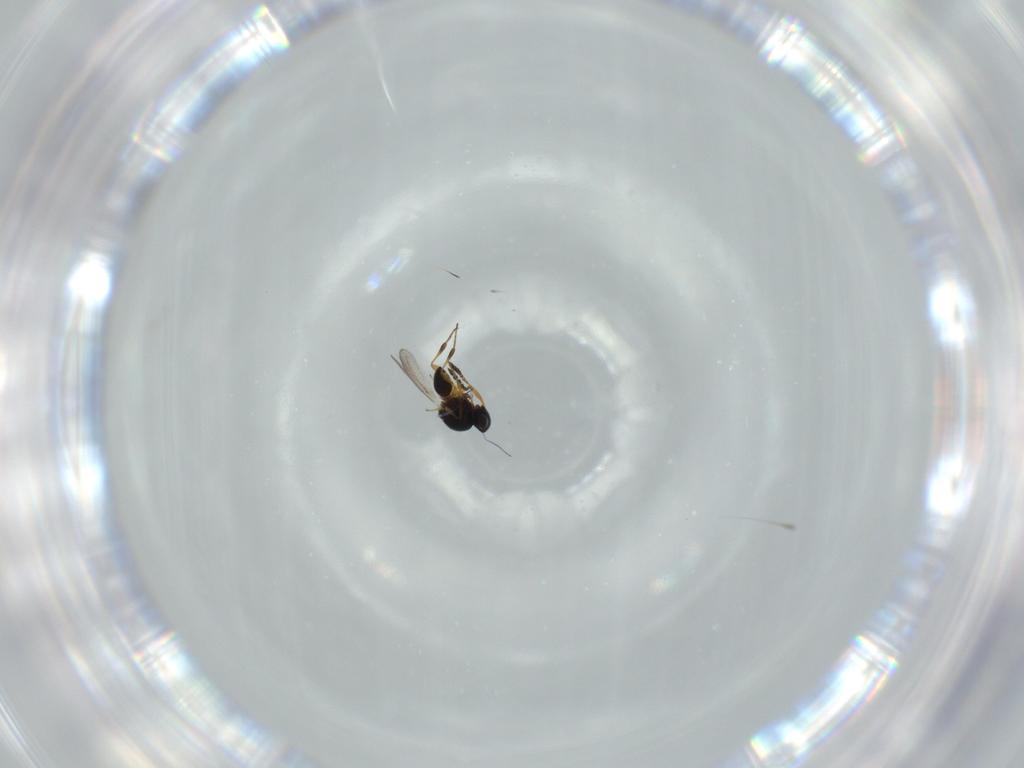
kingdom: Animalia
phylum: Arthropoda
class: Insecta
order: Hymenoptera
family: Platygastridae
